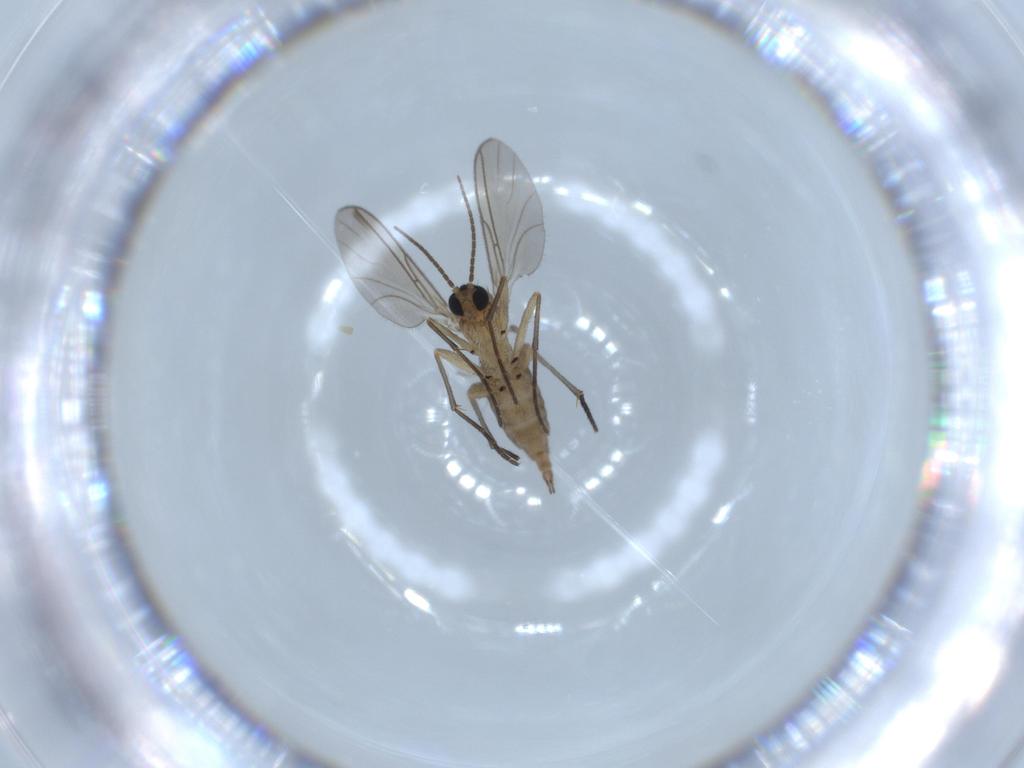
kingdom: Animalia
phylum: Arthropoda
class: Insecta
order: Diptera
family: Sciaridae
